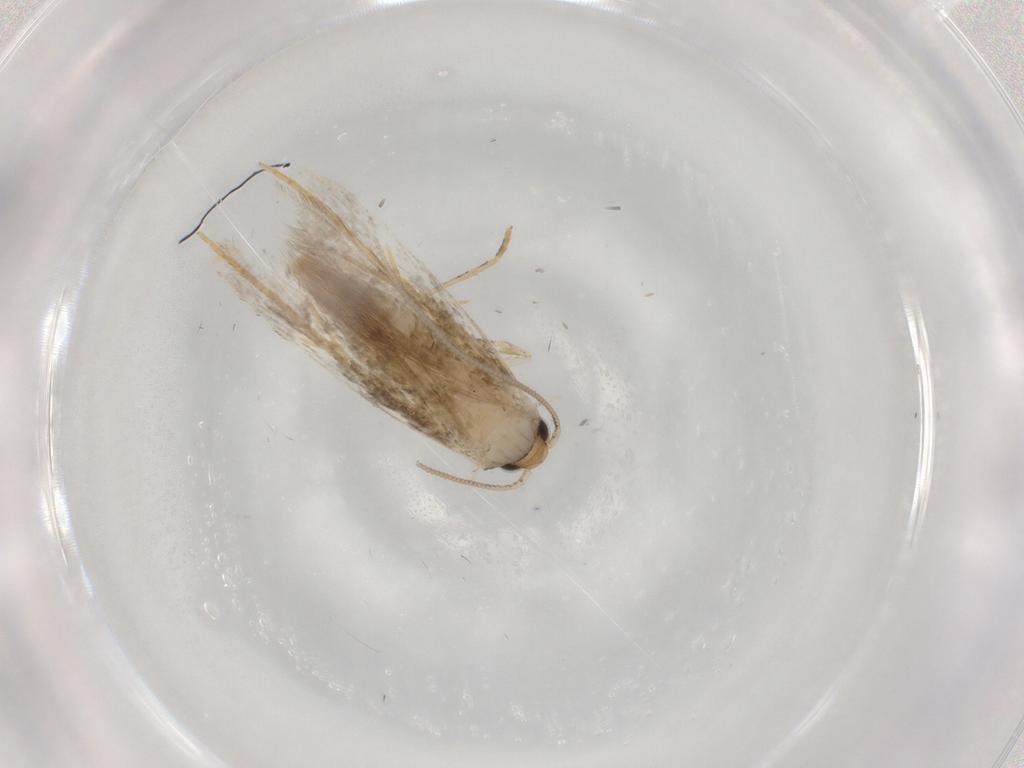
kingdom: Animalia
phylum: Arthropoda
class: Insecta
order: Lepidoptera
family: Tineidae
